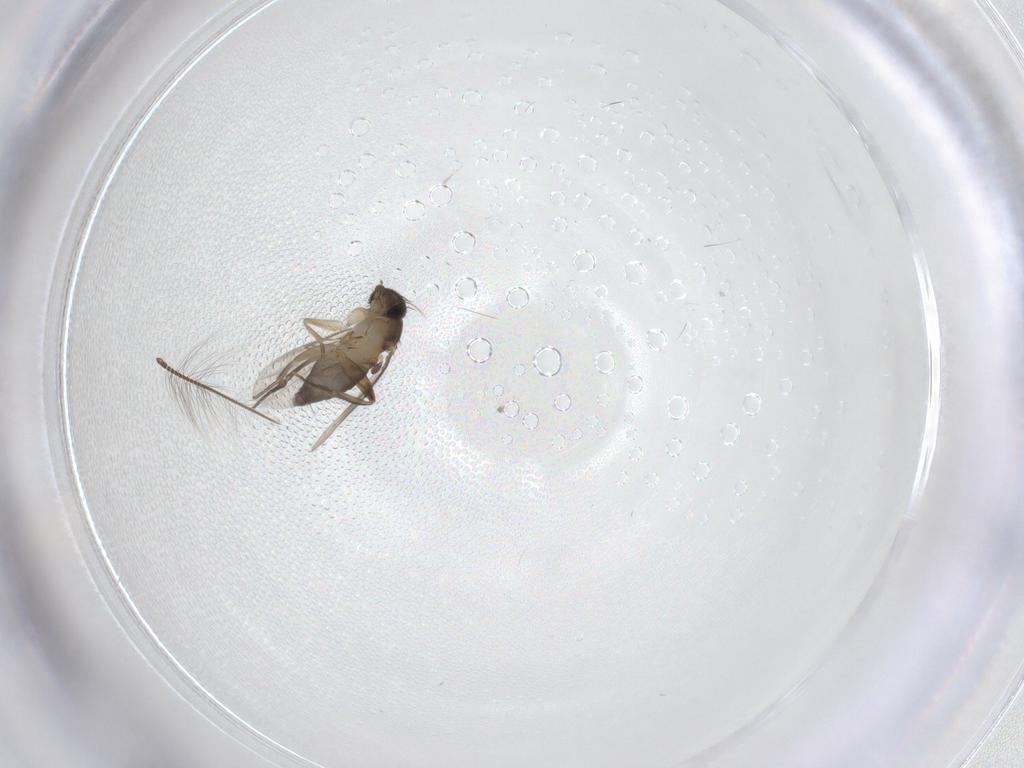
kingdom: Animalia
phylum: Arthropoda
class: Insecta
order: Diptera
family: Phoridae
